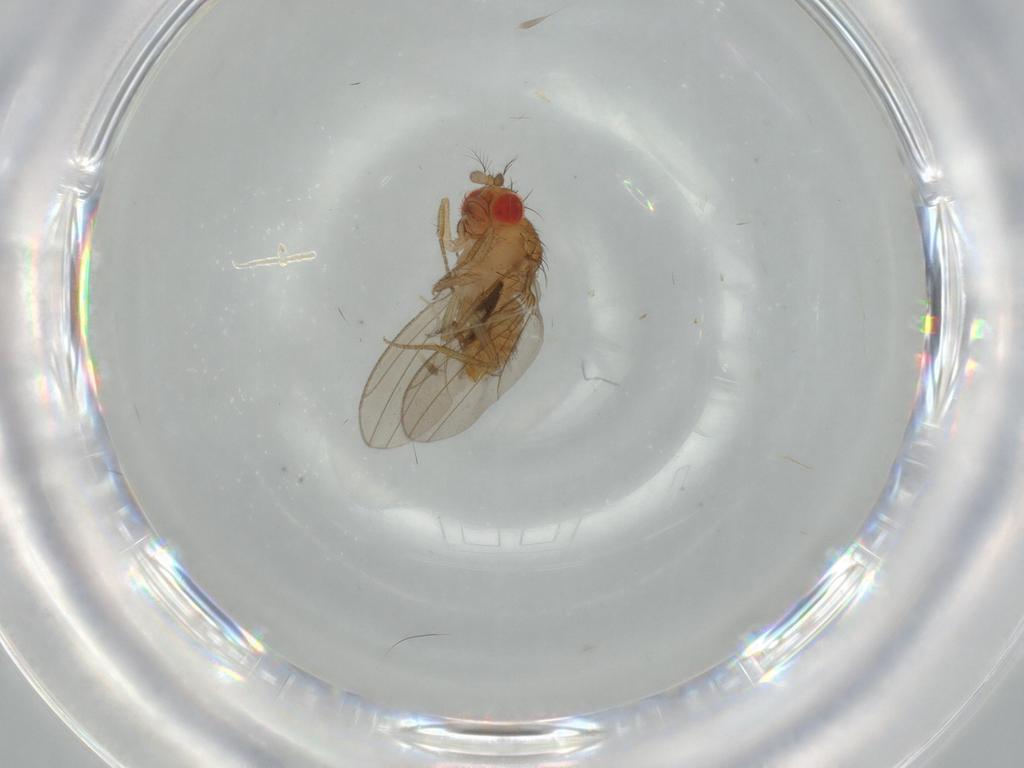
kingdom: Animalia
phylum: Arthropoda
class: Insecta
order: Diptera
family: Drosophilidae
